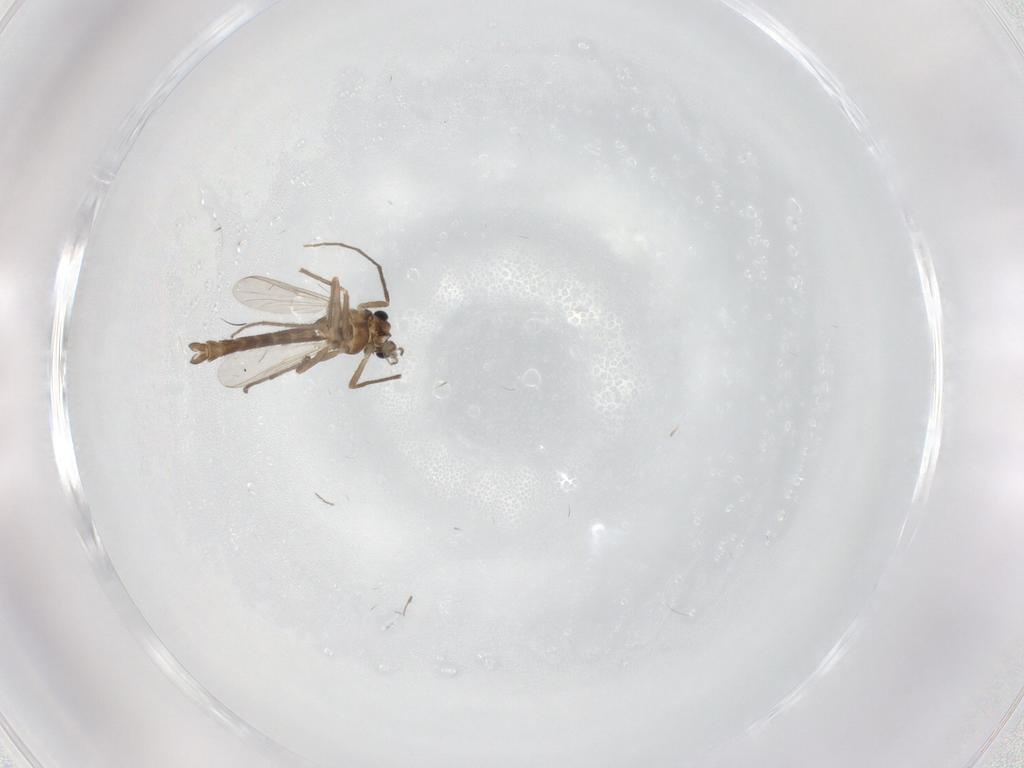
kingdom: Animalia
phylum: Arthropoda
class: Insecta
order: Diptera
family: Chironomidae
